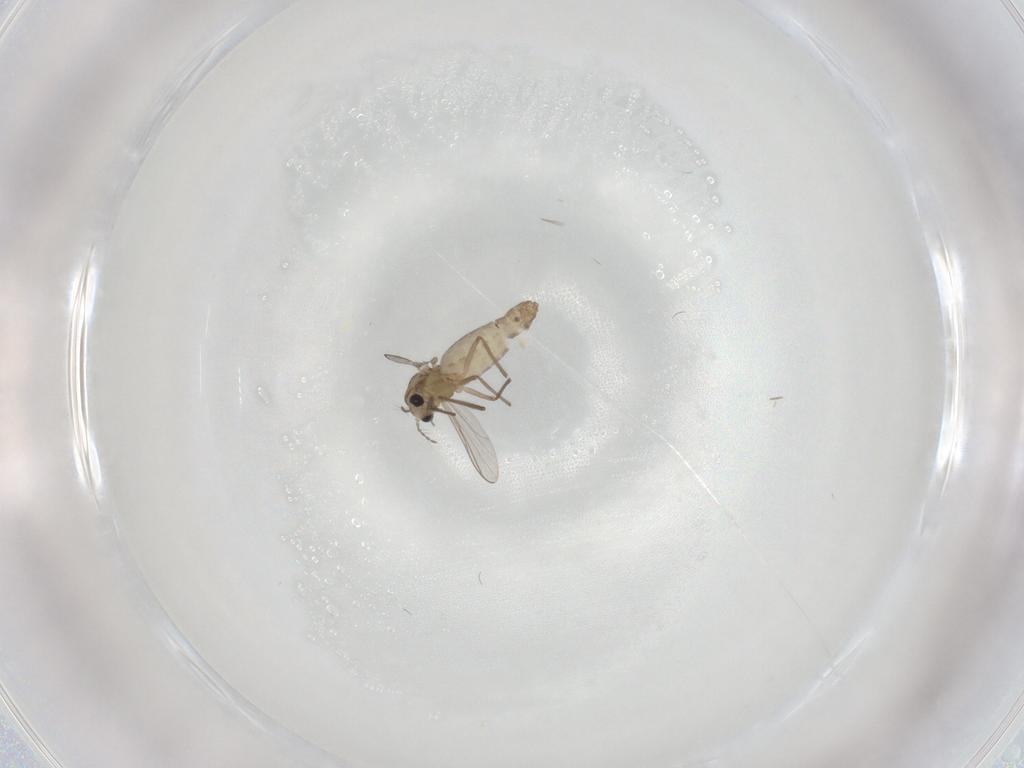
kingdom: Animalia
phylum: Arthropoda
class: Insecta
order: Diptera
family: Chironomidae
